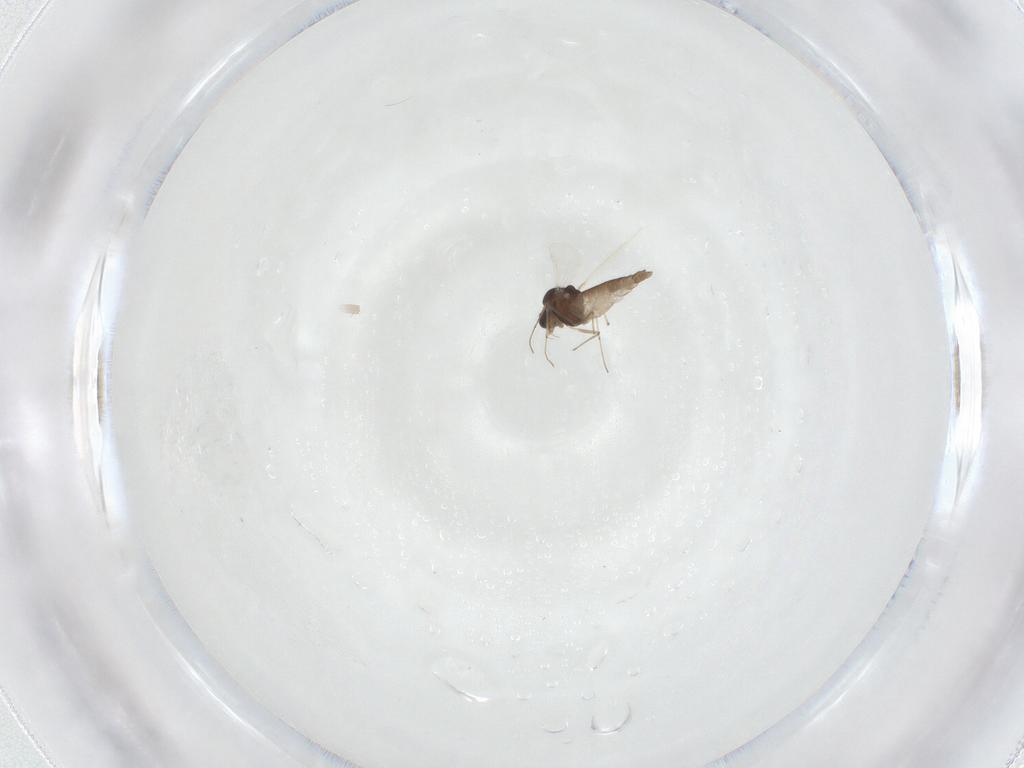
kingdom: Animalia
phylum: Arthropoda
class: Insecta
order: Diptera
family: Chironomidae
